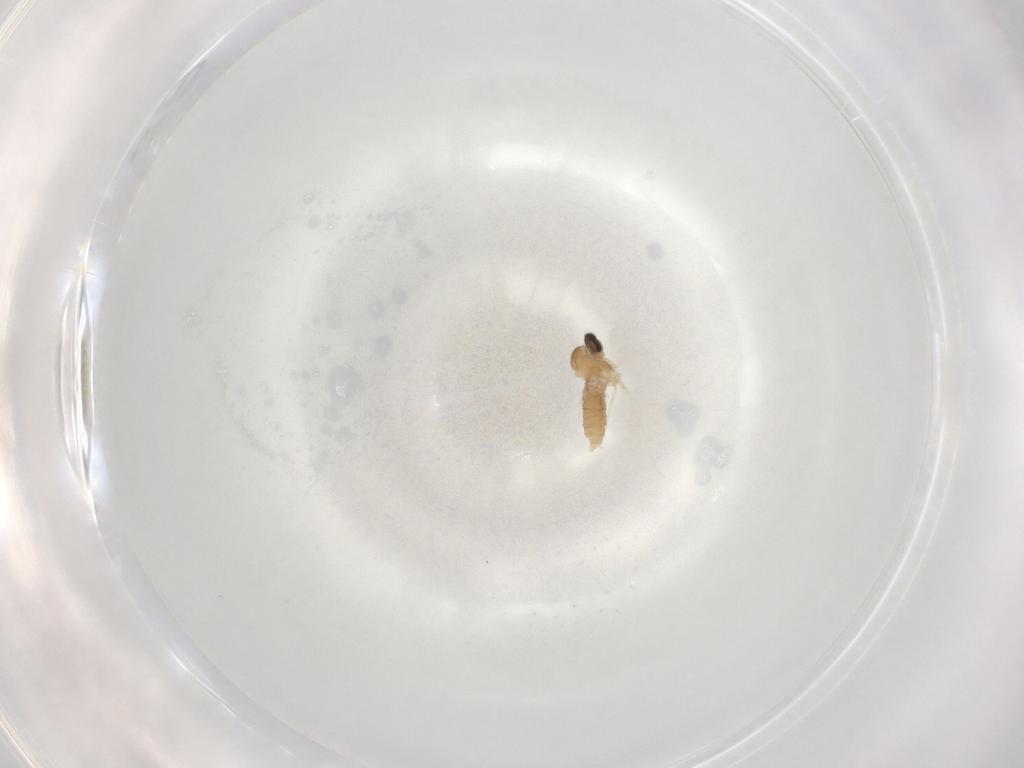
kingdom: Animalia
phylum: Arthropoda
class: Insecta
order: Diptera
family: Cecidomyiidae
